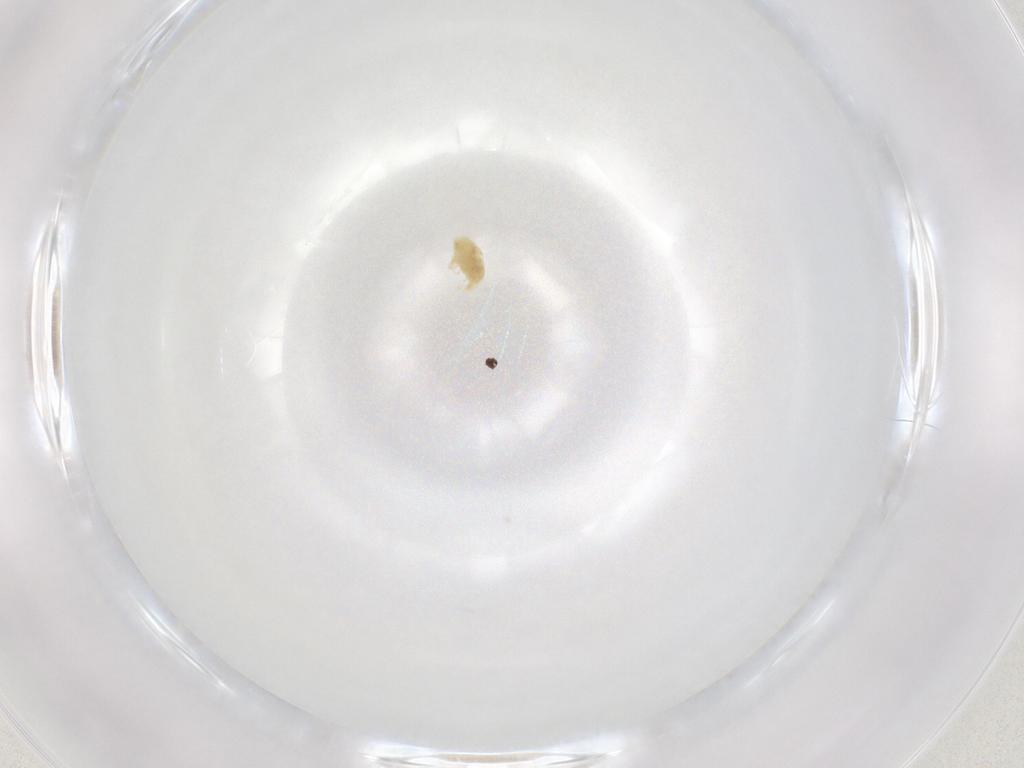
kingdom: Animalia
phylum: Arthropoda
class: Arachnida
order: Trombidiformes
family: Eupodidae
